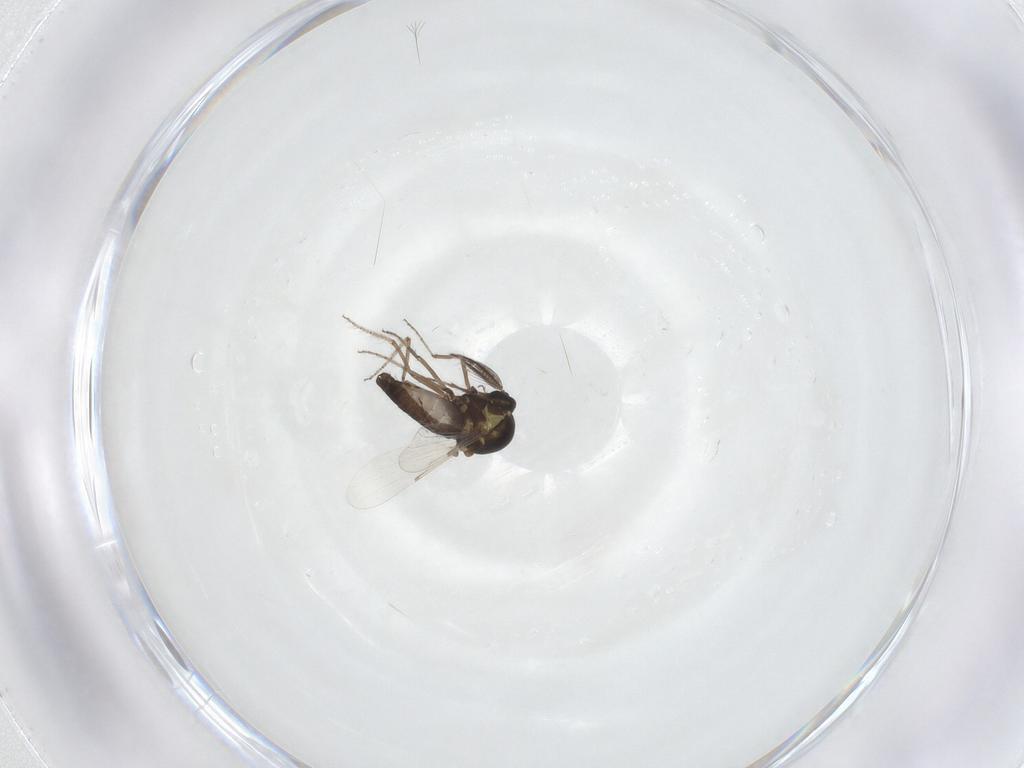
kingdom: Animalia
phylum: Arthropoda
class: Insecta
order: Diptera
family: Ceratopogonidae
